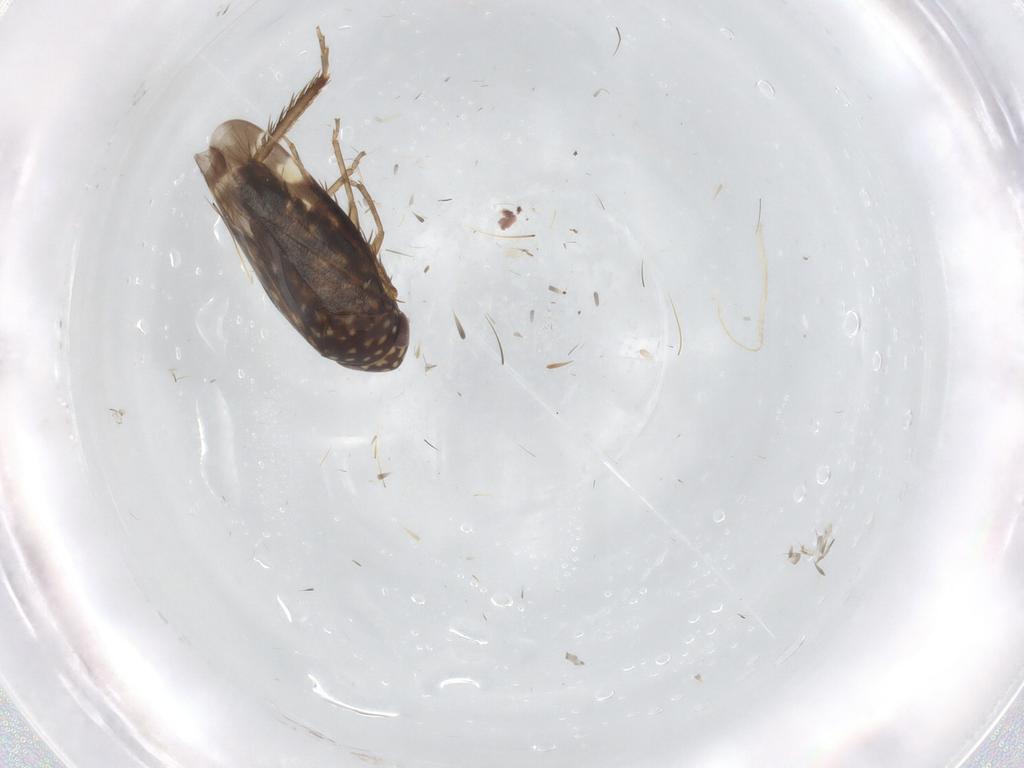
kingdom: Animalia
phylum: Arthropoda
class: Insecta
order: Hemiptera
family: Cicadellidae
